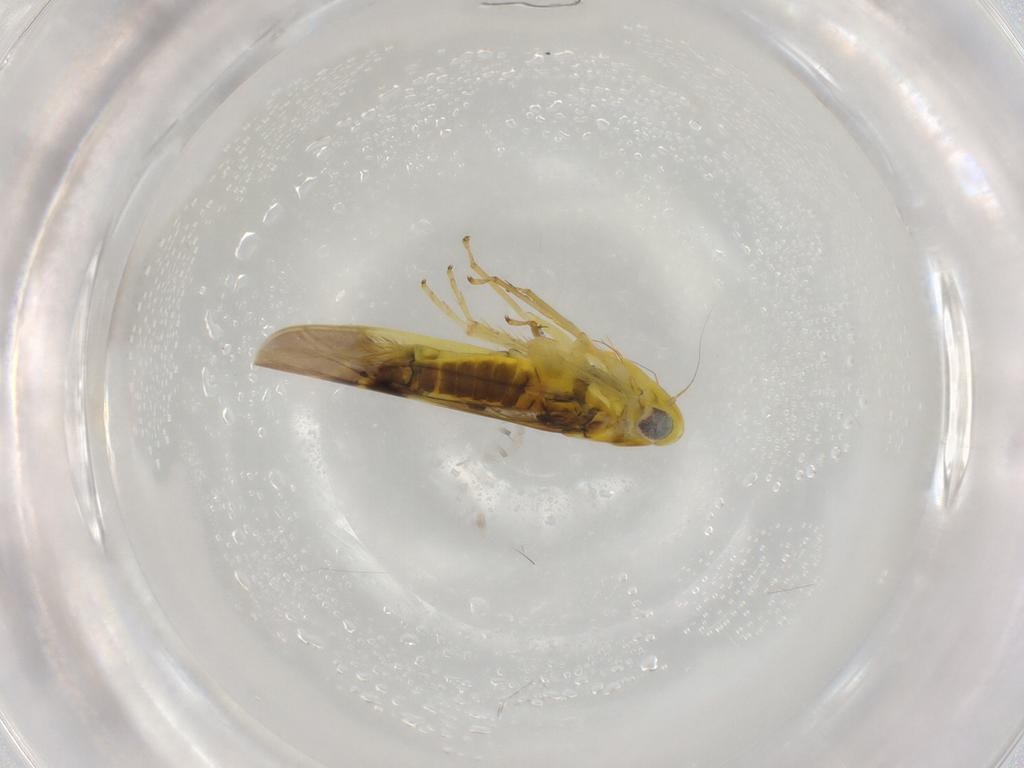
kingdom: Animalia
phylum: Arthropoda
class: Insecta
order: Hemiptera
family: Cicadellidae
